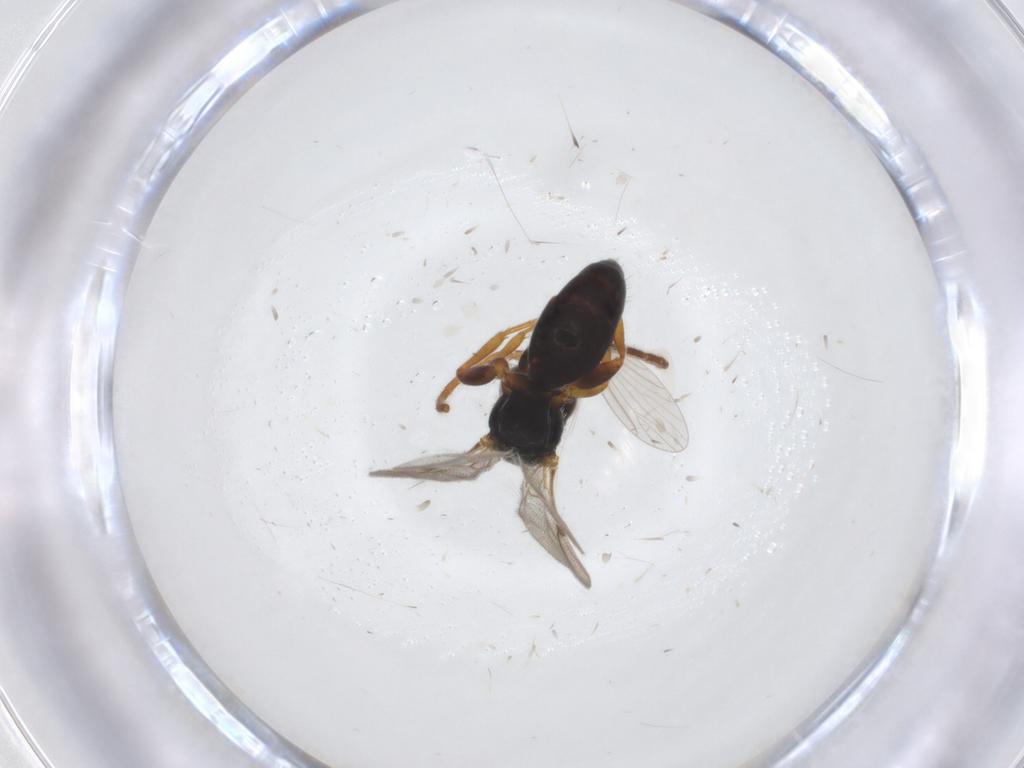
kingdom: Animalia
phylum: Arthropoda
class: Insecta
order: Hymenoptera
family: Bethylidae
